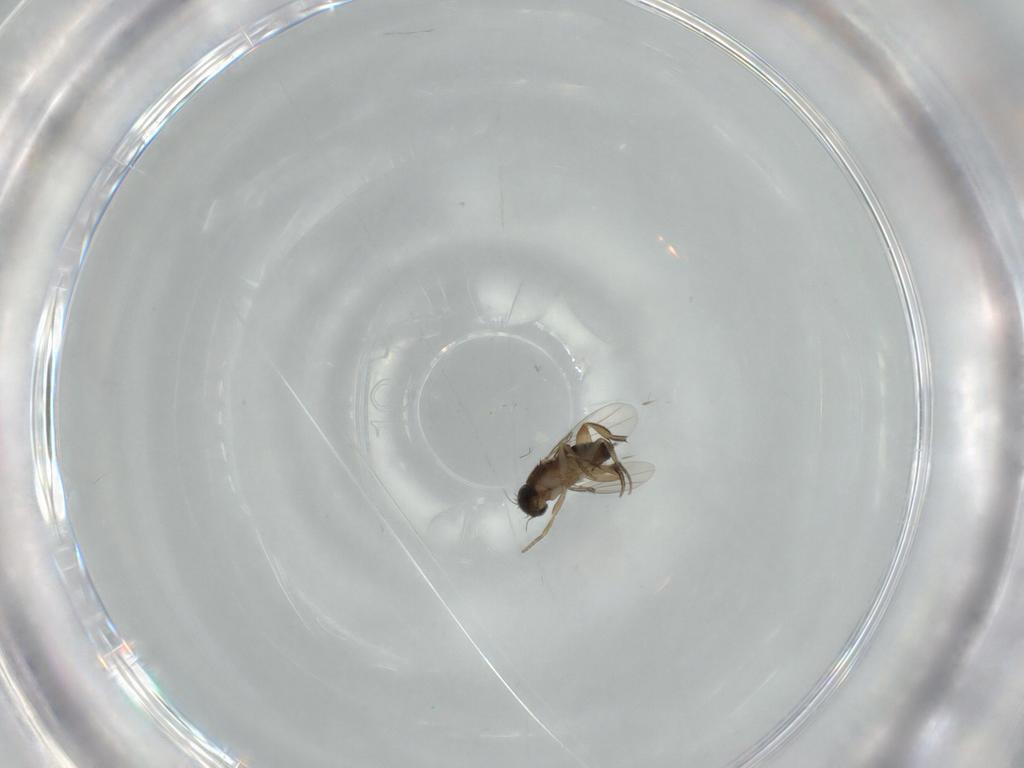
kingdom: Animalia
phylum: Arthropoda
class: Insecta
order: Diptera
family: Phoridae
